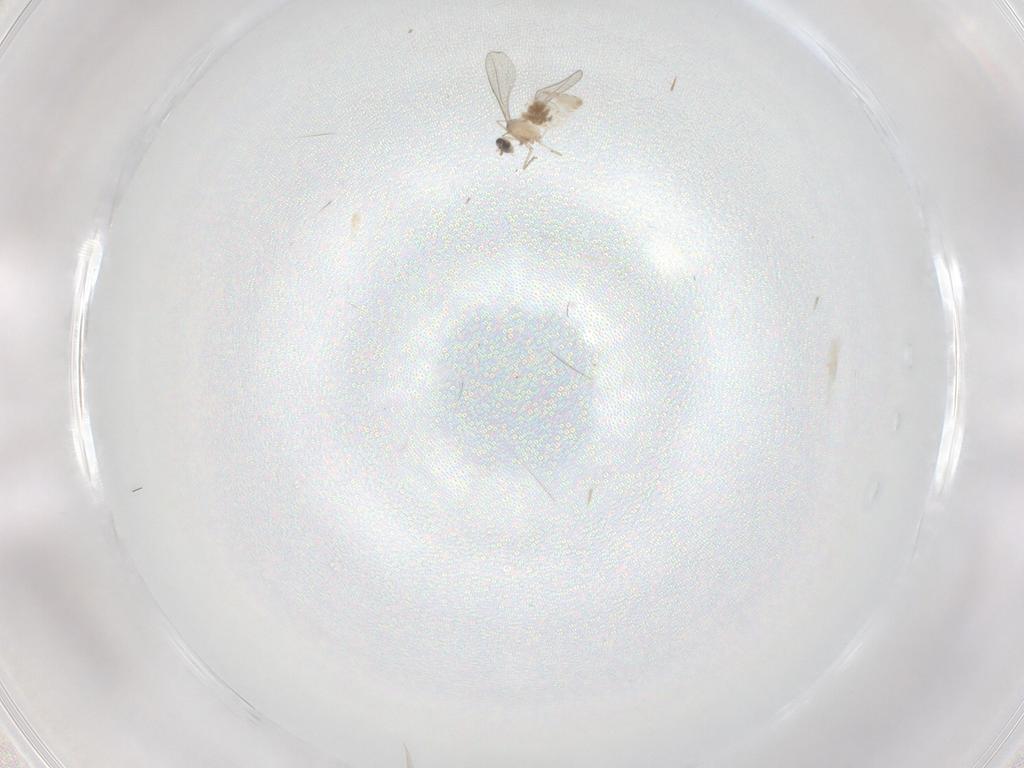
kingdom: Animalia
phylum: Arthropoda
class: Insecta
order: Diptera
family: Cecidomyiidae
